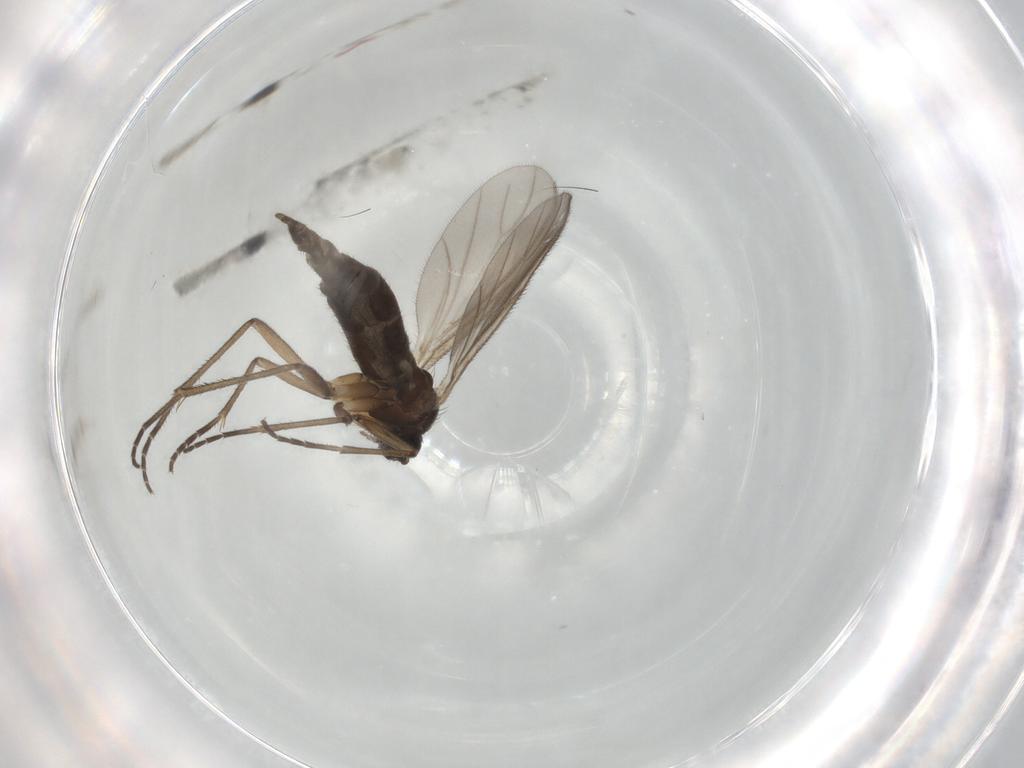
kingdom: Animalia
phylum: Arthropoda
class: Insecta
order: Diptera
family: Sciaridae
